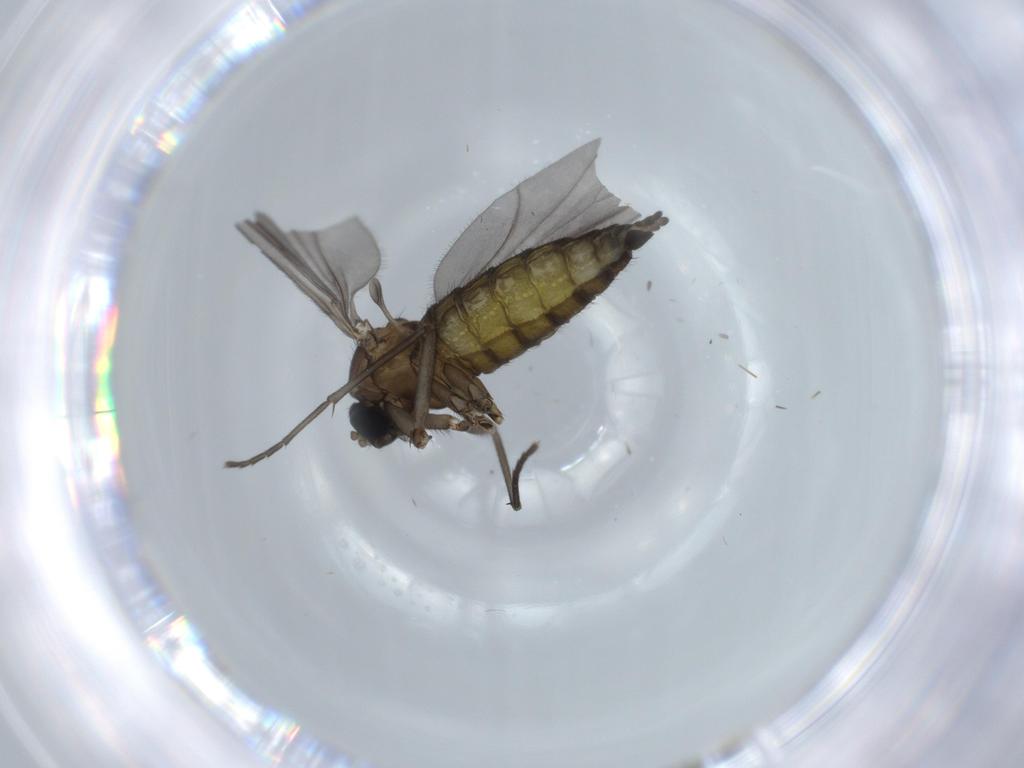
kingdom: Animalia
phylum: Arthropoda
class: Insecta
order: Diptera
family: Sciaridae
